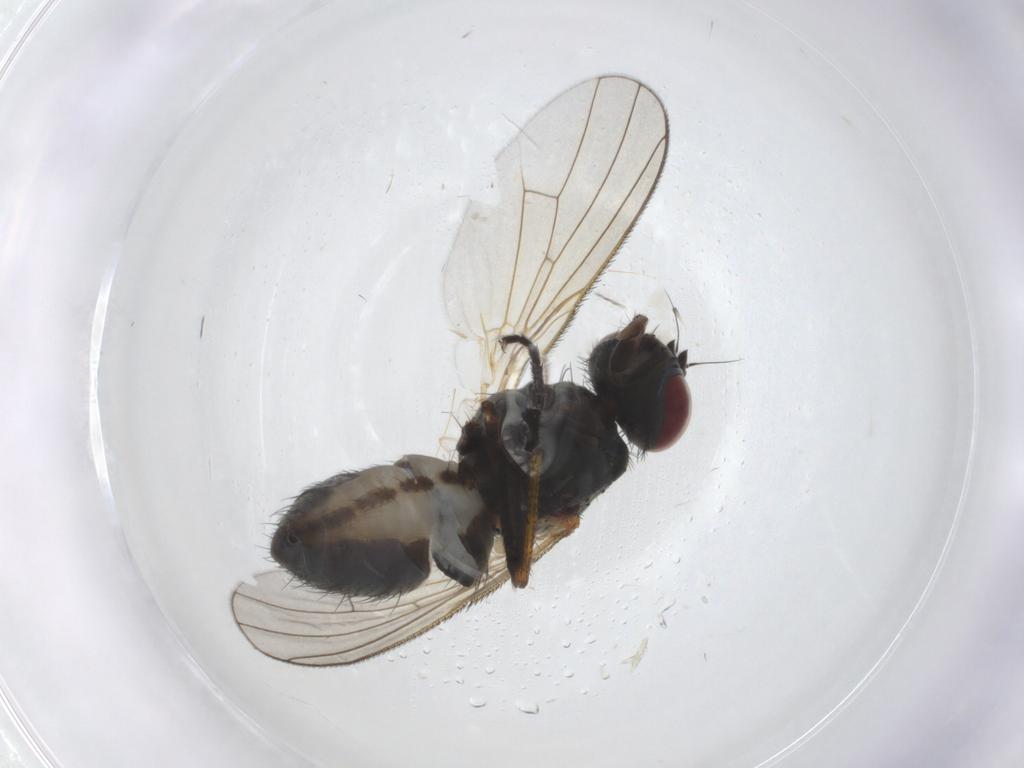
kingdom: Animalia
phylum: Arthropoda
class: Insecta
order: Diptera
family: Sciaridae
